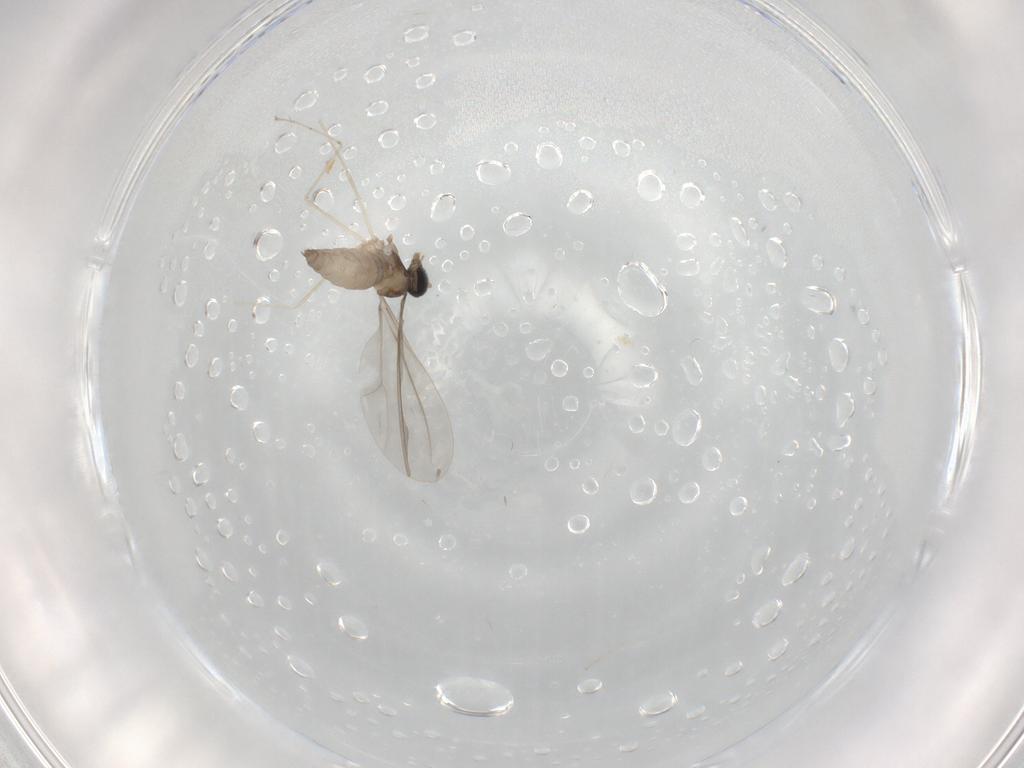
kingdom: Animalia
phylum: Arthropoda
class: Insecta
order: Diptera
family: Cecidomyiidae
